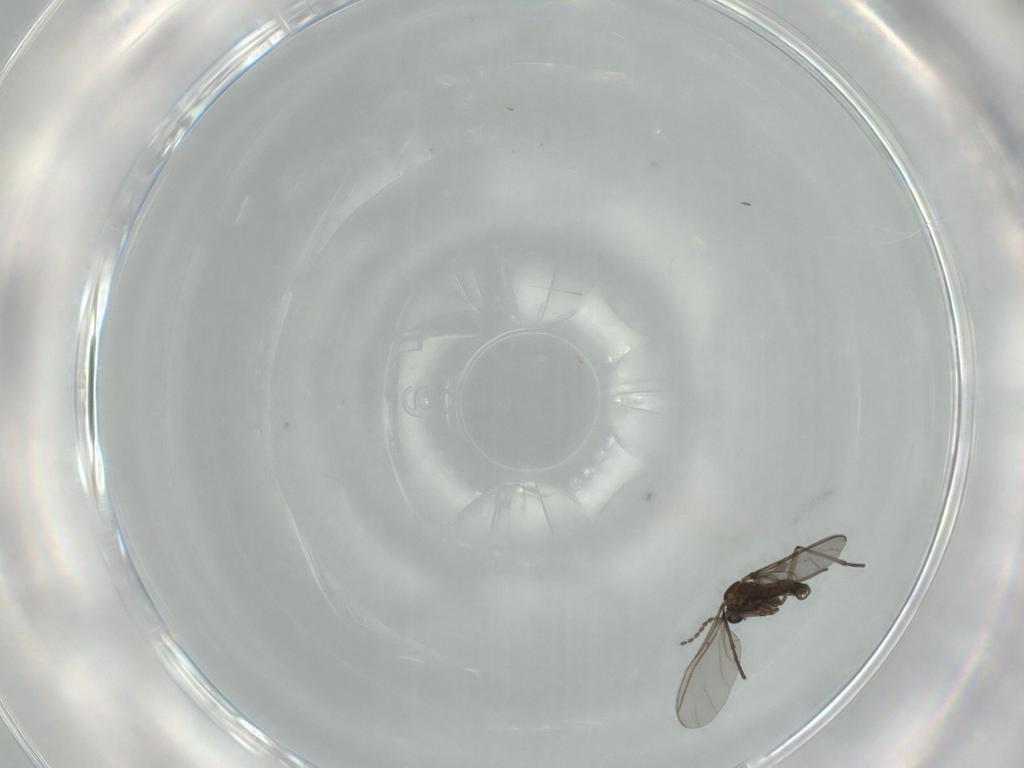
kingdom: Animalia
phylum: Arthropoda
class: Insecta
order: Diptera
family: Sciaridae
